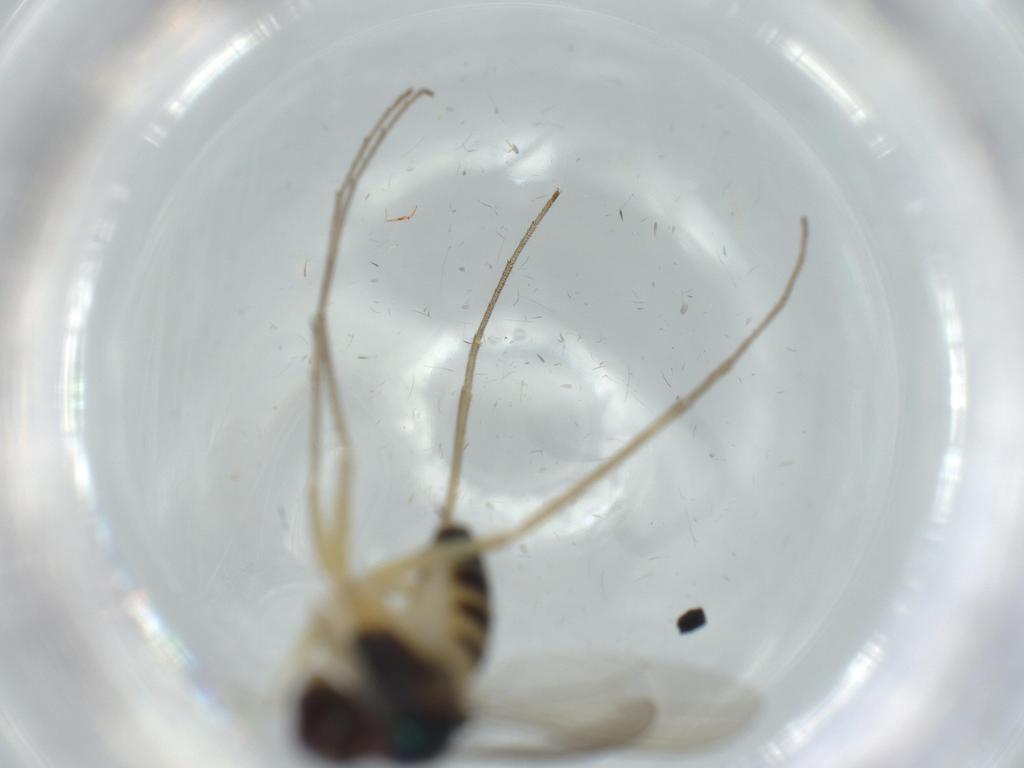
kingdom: Animalia
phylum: Arthropoda
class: Insecta
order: Diptera
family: Dolichopodidae
